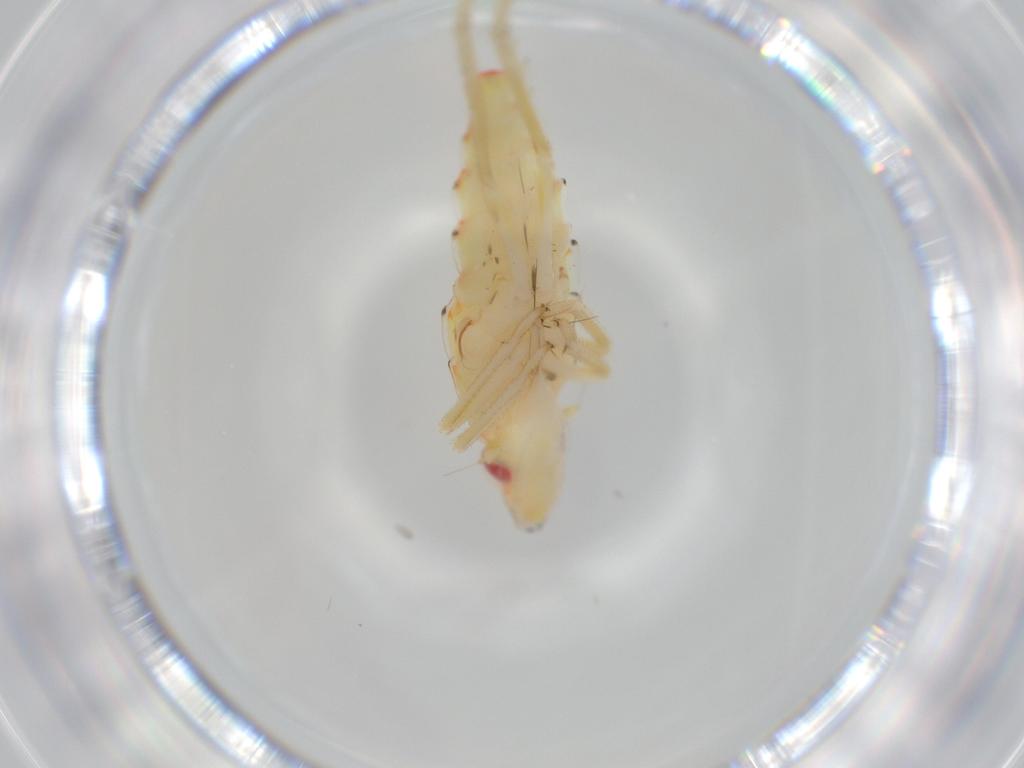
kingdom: Animalia
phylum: Arthropoda
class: Insecta
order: Hemiptera
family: Tropiduchidae
